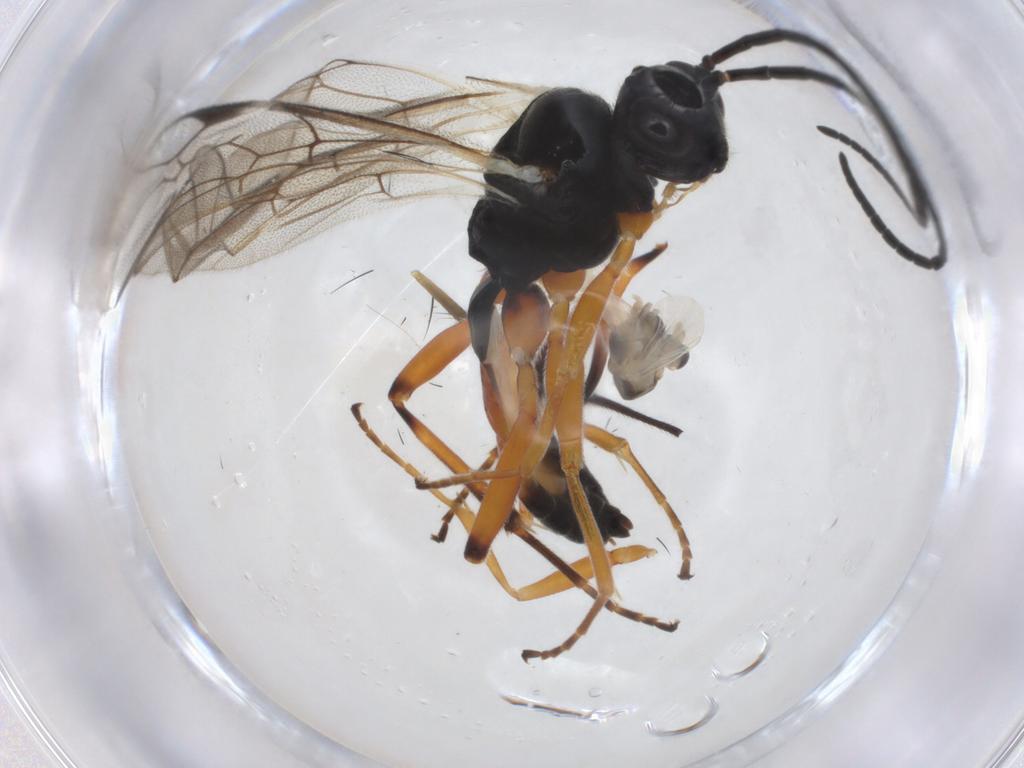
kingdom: Animalia
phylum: Arthropoda
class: Insecta
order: Hymenoptera
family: Ichneumonidae
